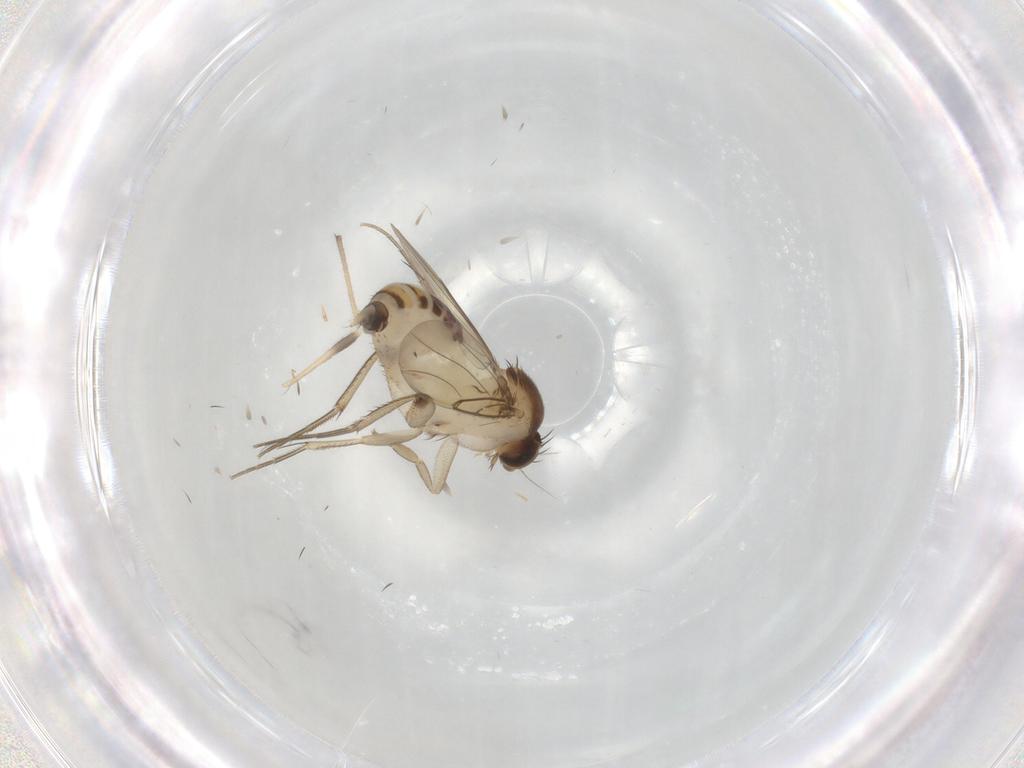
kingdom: Animalia
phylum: Arthropoda
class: Insecta
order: Diptera
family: Phoridae
